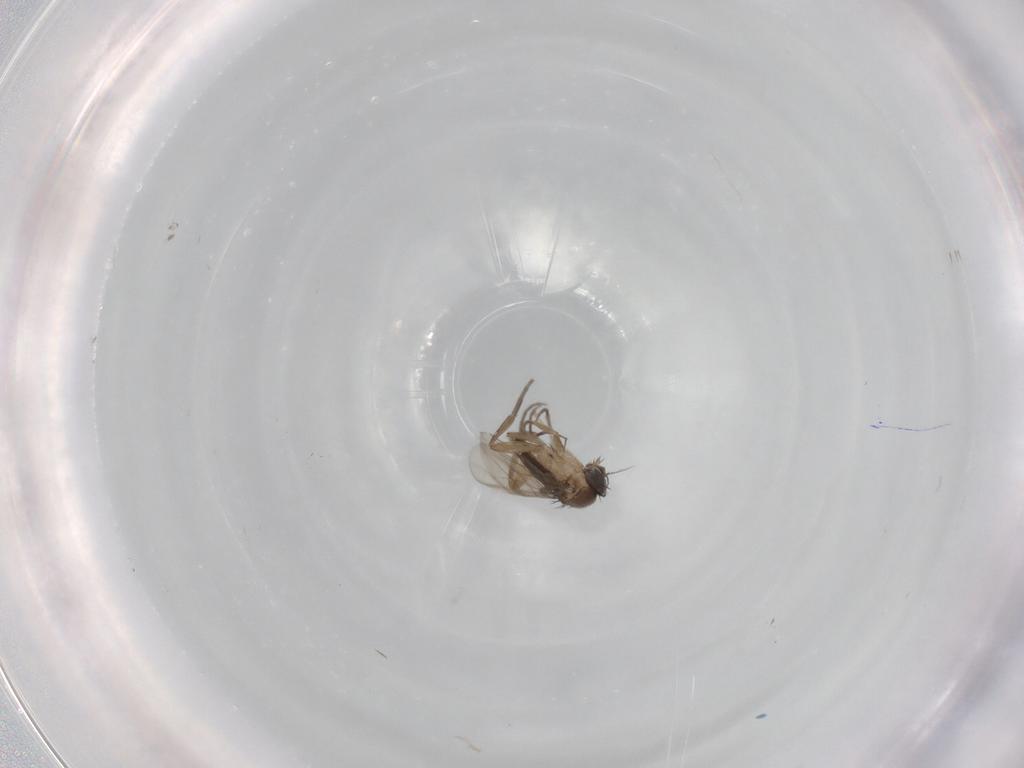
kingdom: Animalia
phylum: Arthropoda
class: Insecta
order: Diptera
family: Phoridae
